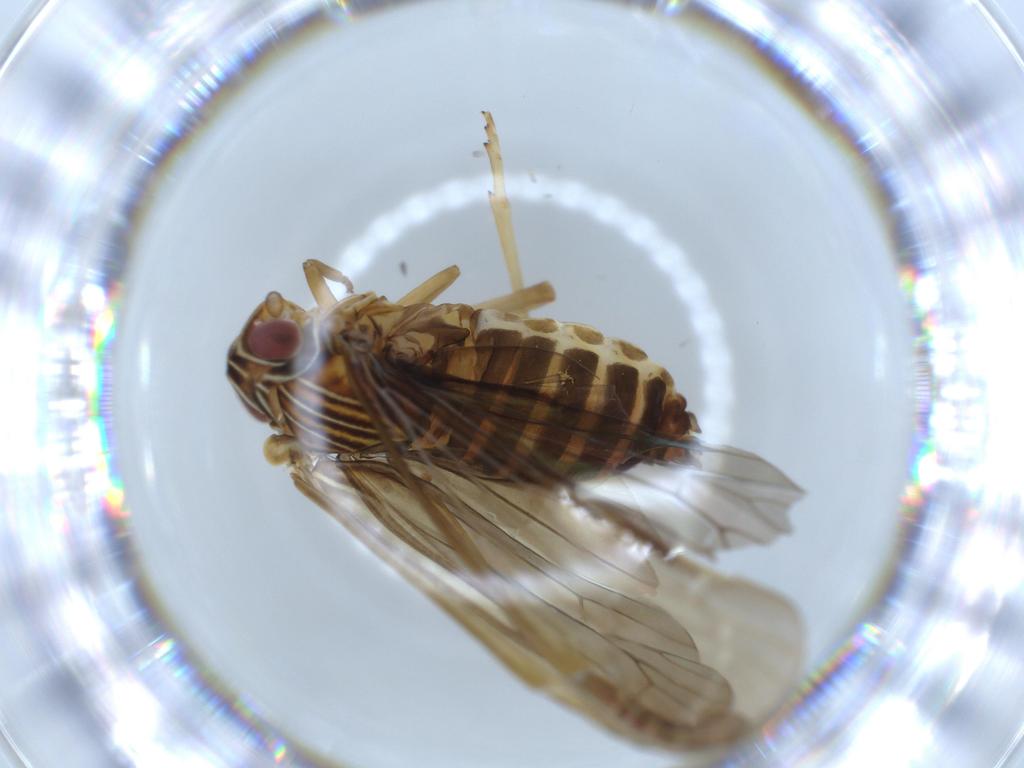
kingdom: Animalia
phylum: Arthropoda
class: Insecta
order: Hemiptera
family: Achilidae
